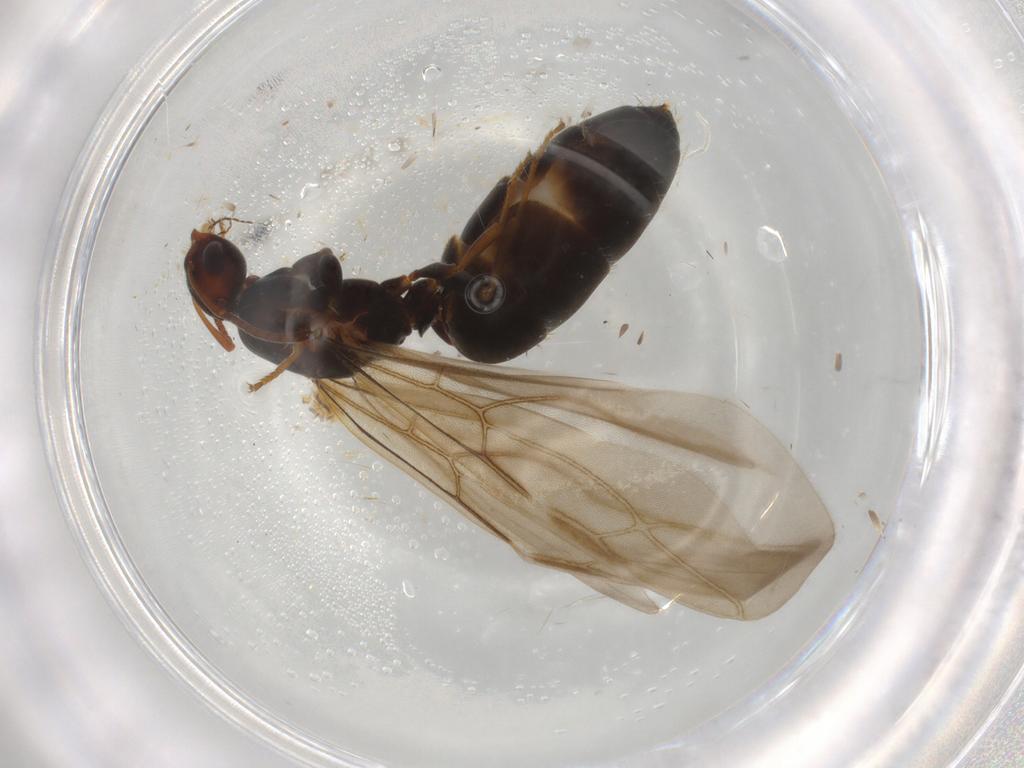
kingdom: Animalia
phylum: Arthropoda
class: Insecta
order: Hymenoptera
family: Formicidae
